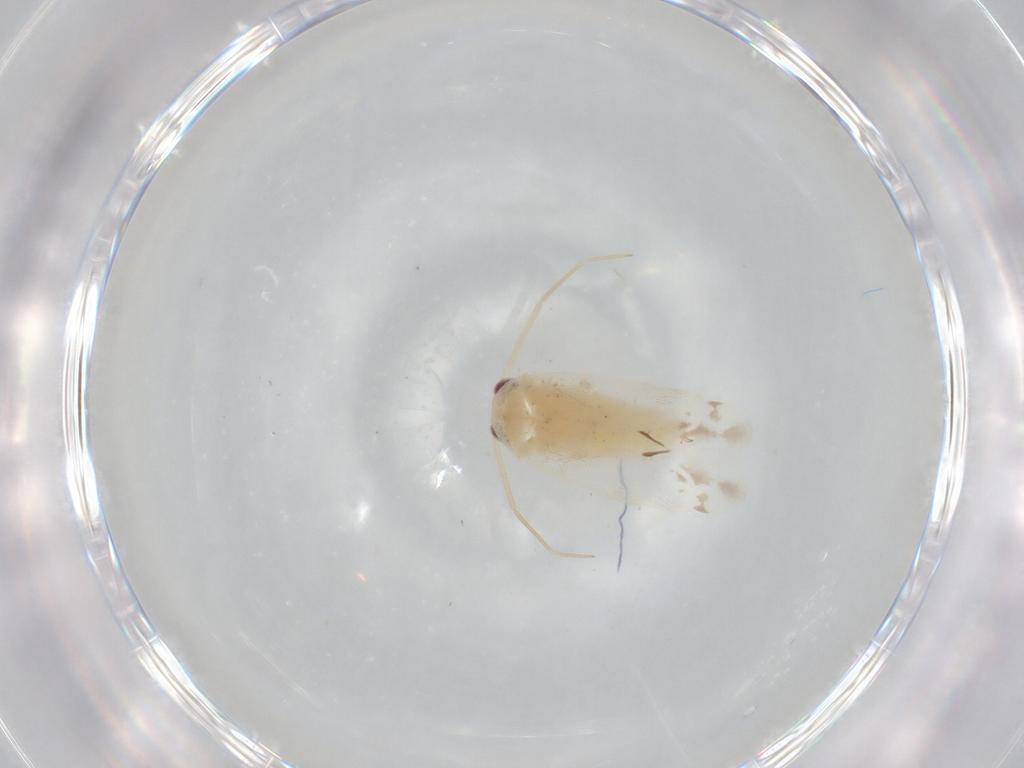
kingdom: Animalia
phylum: Arthropoda
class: Insecta
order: Hemiptera
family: Miridae
